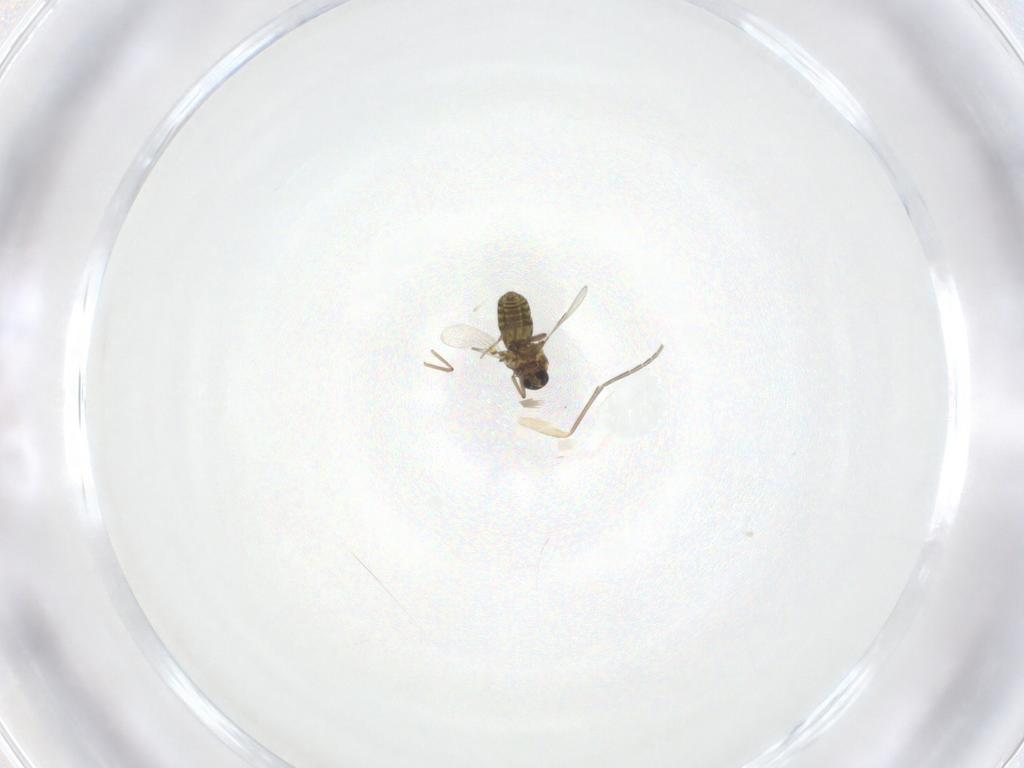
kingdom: Animalia
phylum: Arthropoda
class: Insecta
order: Diptera
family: Ceratopogonidae
